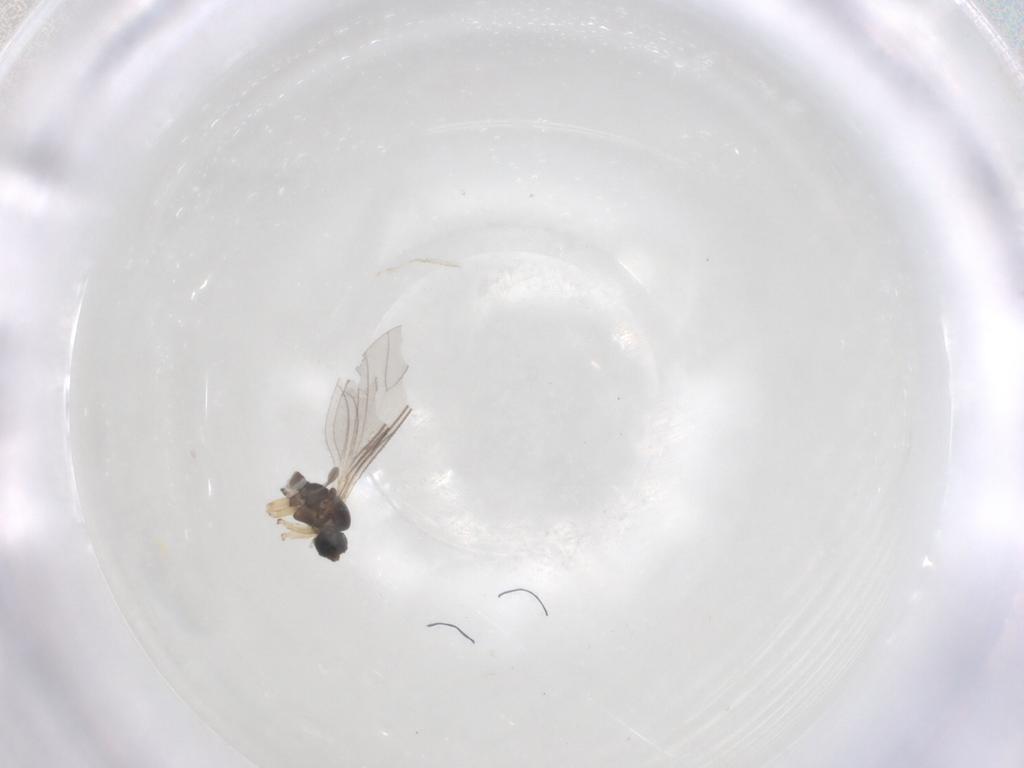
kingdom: Animalia
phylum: Arthropoda
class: Insecta
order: Diptera
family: Sciaridae
